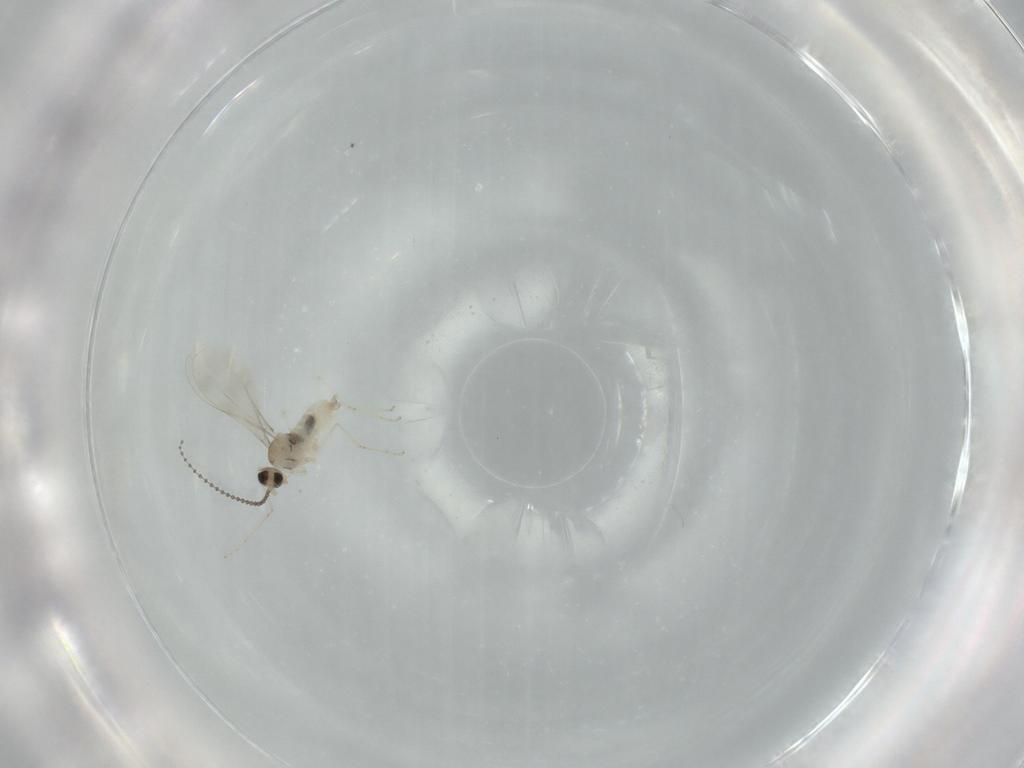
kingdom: Animalia
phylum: Arthropoda
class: Insecta
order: Diptera
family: Cecidomyiidae
